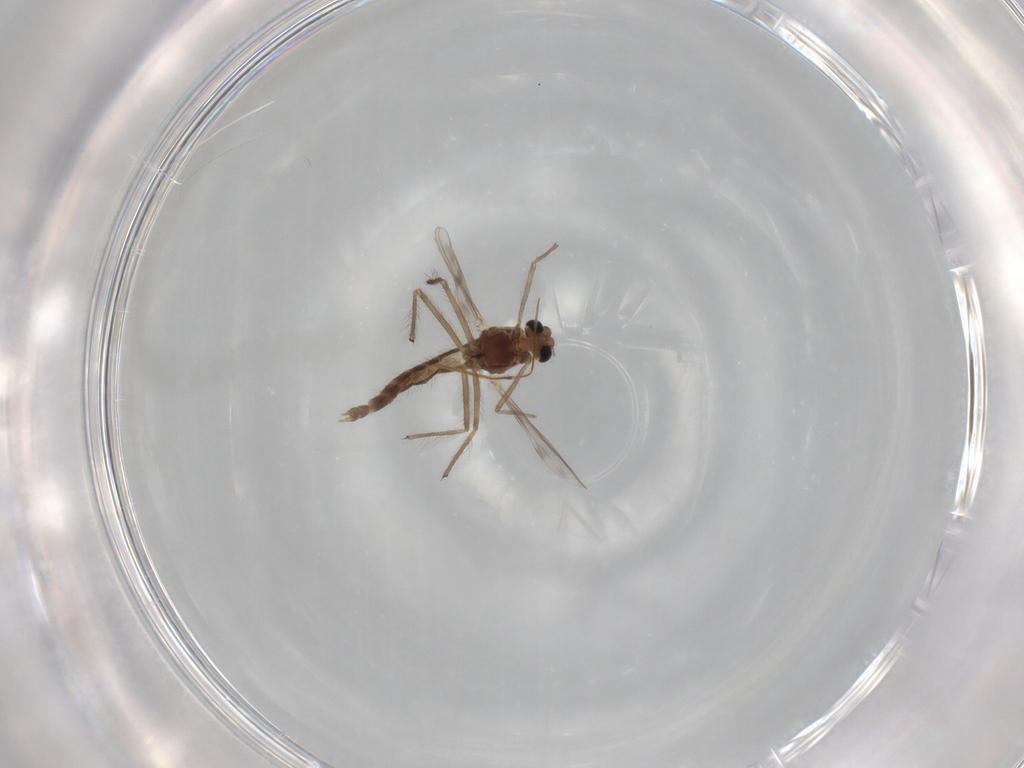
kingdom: Animalia
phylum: Arthropoda
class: Insecta
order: Diptera
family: Chironomidae
